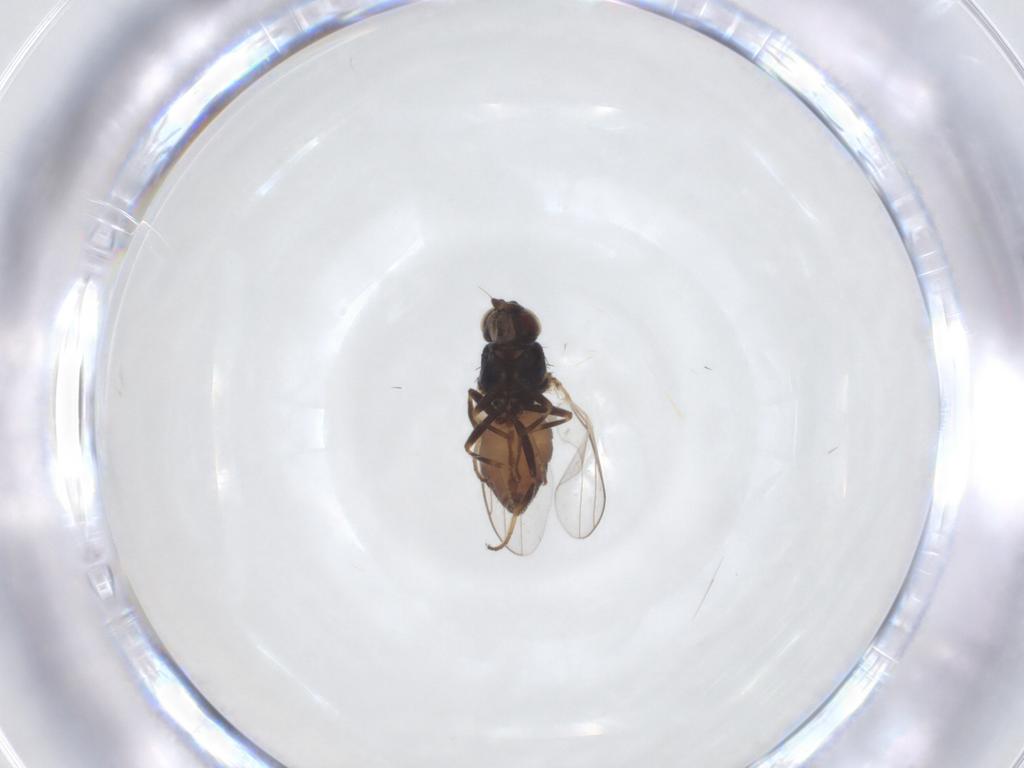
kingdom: Animalia
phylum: Arthropoda
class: Insecta
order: Diptera
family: Chloropidae
